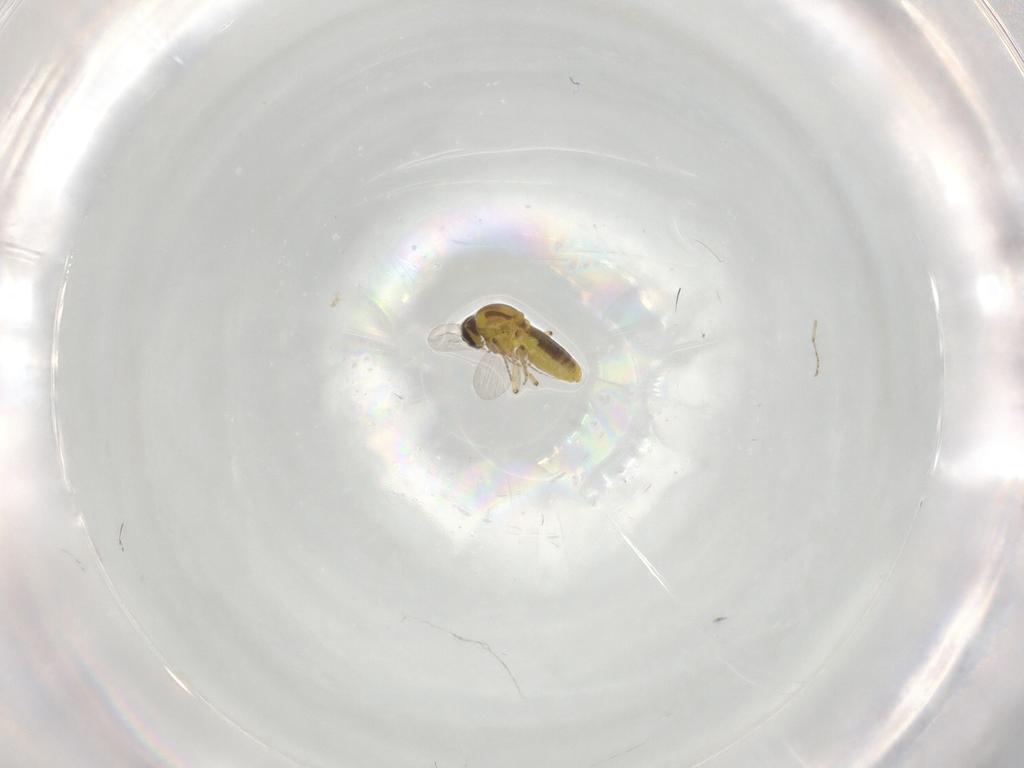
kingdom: Animalia
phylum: Arthropoda
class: Insecta
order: Diptera
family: Ceratopogonidae
